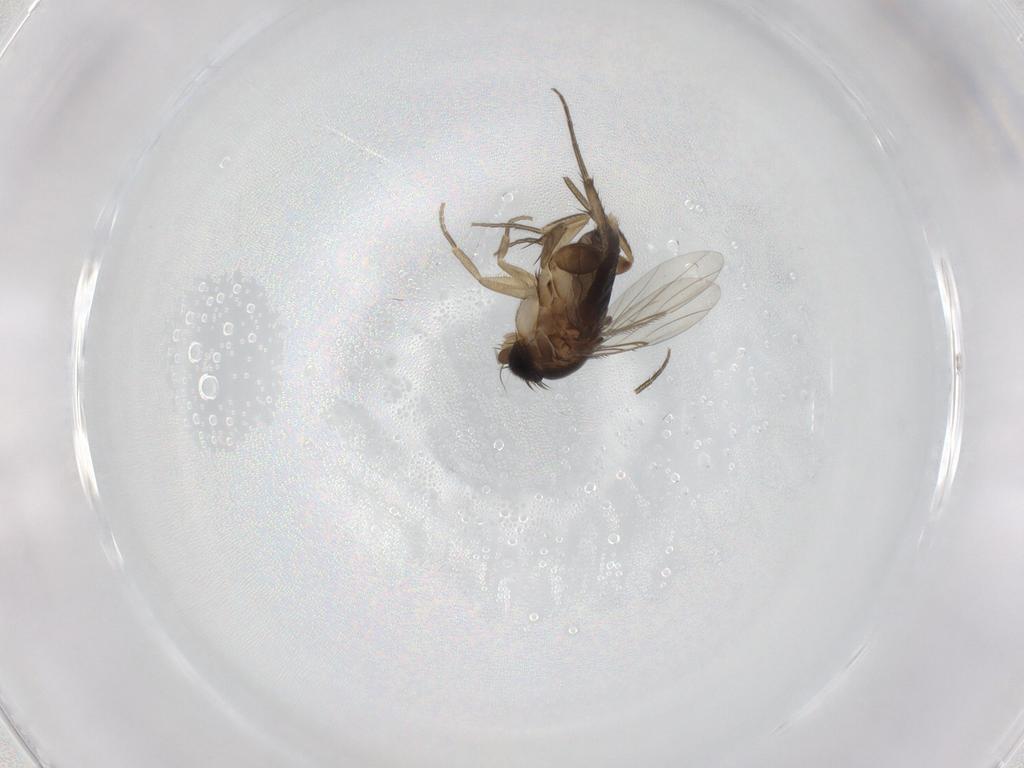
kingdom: Animalia
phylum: Arthropoda
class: Insecta
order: Diptera
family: Phoridae
